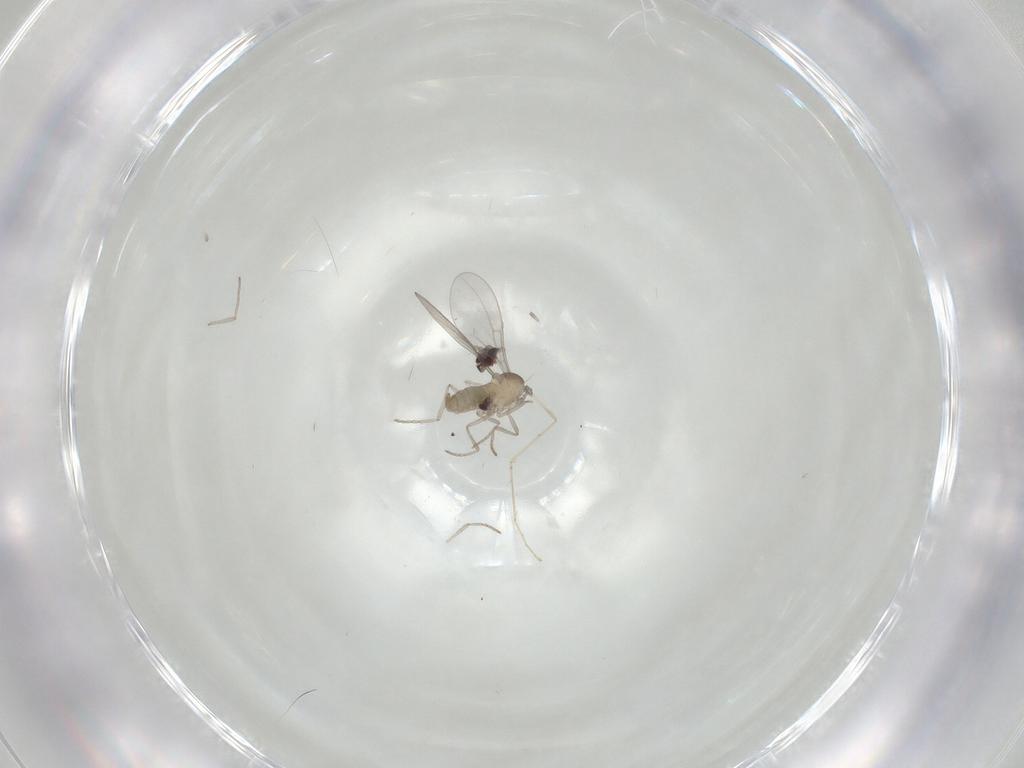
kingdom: Animalia
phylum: Arthropoda
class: Insecta
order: Diptera
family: Cecidomyiidae
